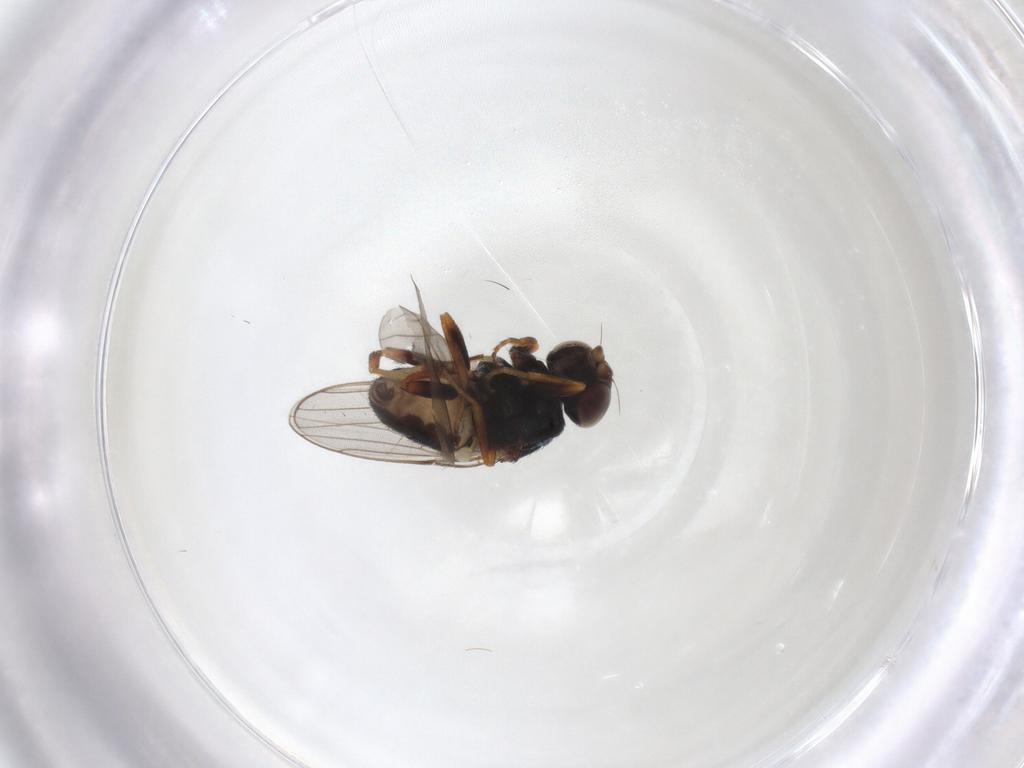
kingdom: Animalia
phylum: Arthropoda
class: Insecta
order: Diptera
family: Chloropidae
